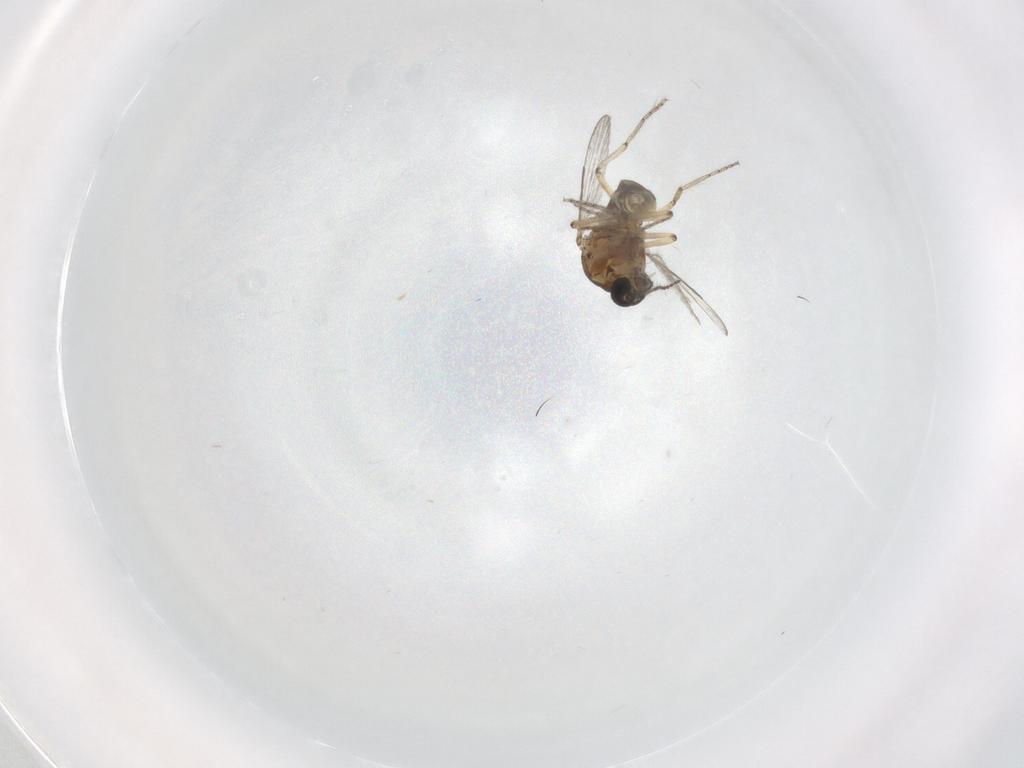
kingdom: Animalia
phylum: Arthropoda
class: Insecta
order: Diptera
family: Ceratopogonidae
